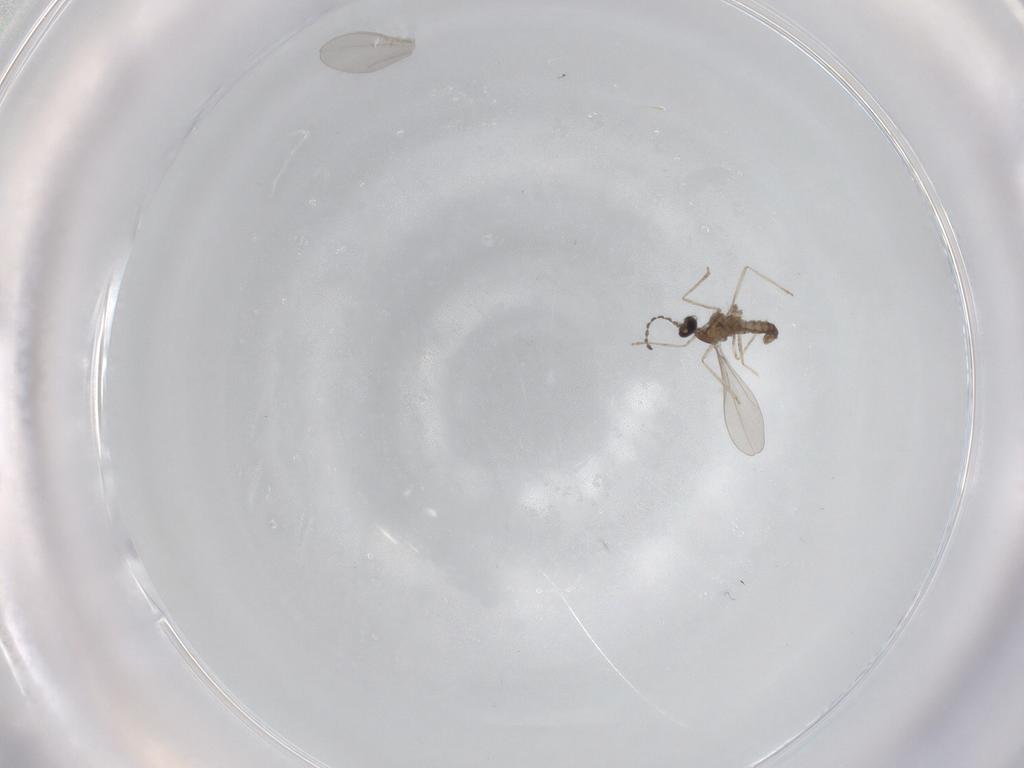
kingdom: Animalia
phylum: Arthropoda
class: Insecta
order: Diptera
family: Cecidomyiidae
